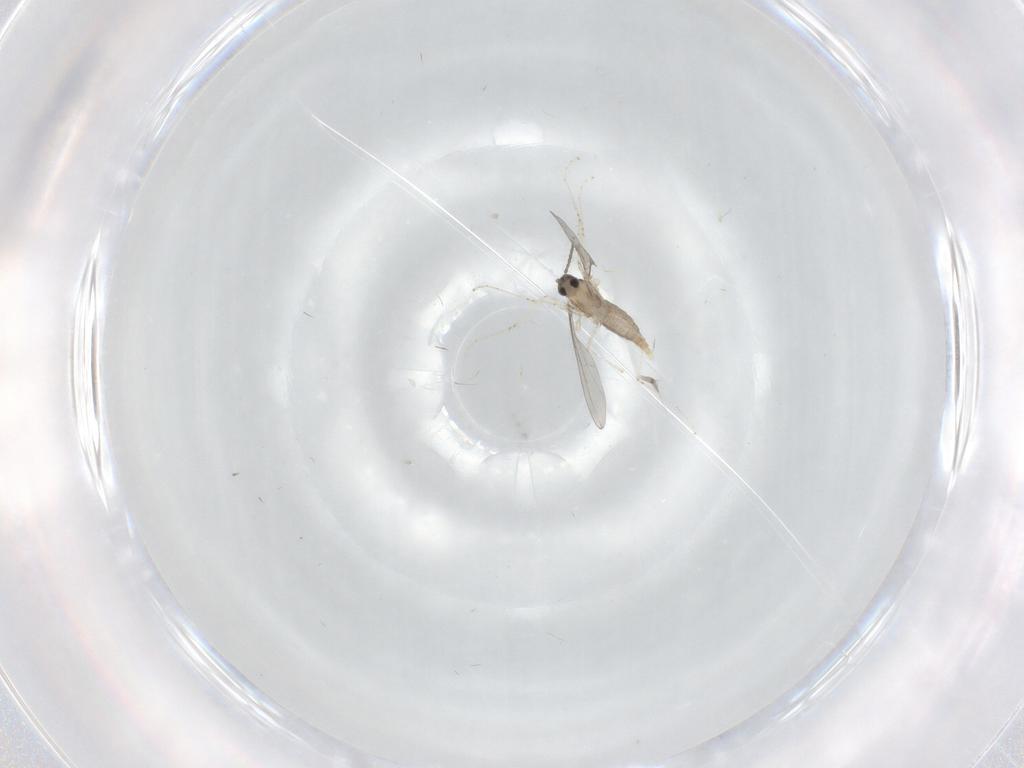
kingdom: Animalia
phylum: Arthropoda
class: Insecta
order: Diptera
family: Cecidomyiidae
